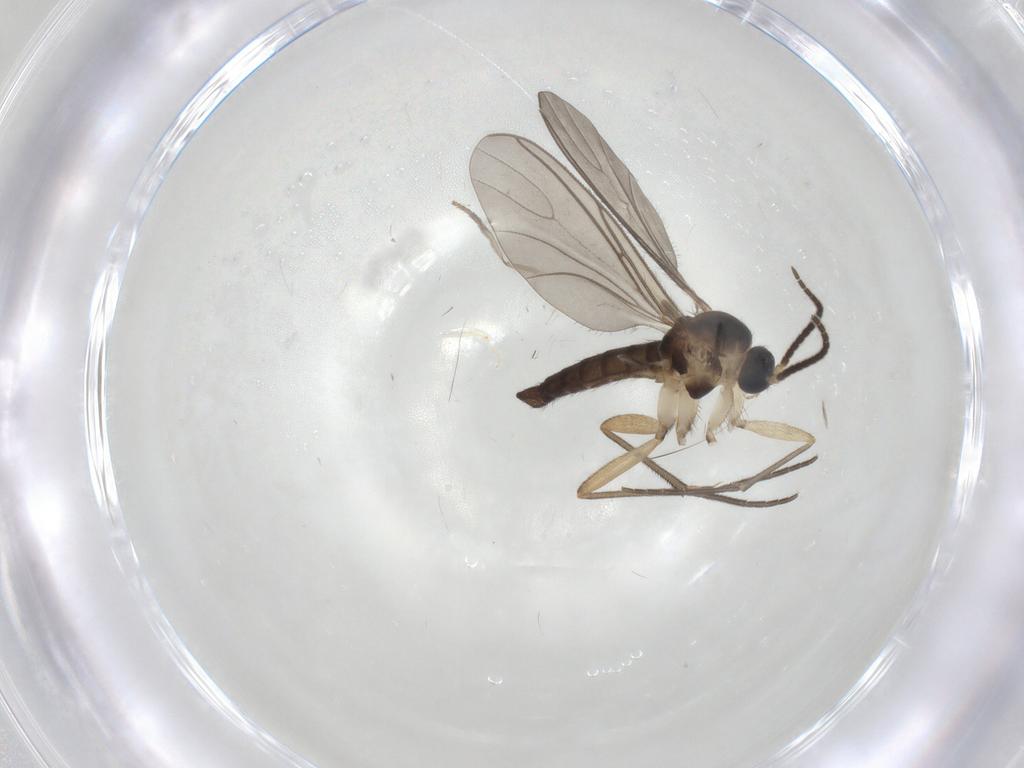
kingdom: Animalia
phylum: Arthropoda
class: Insecta
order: Diptera
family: Sciaridae
